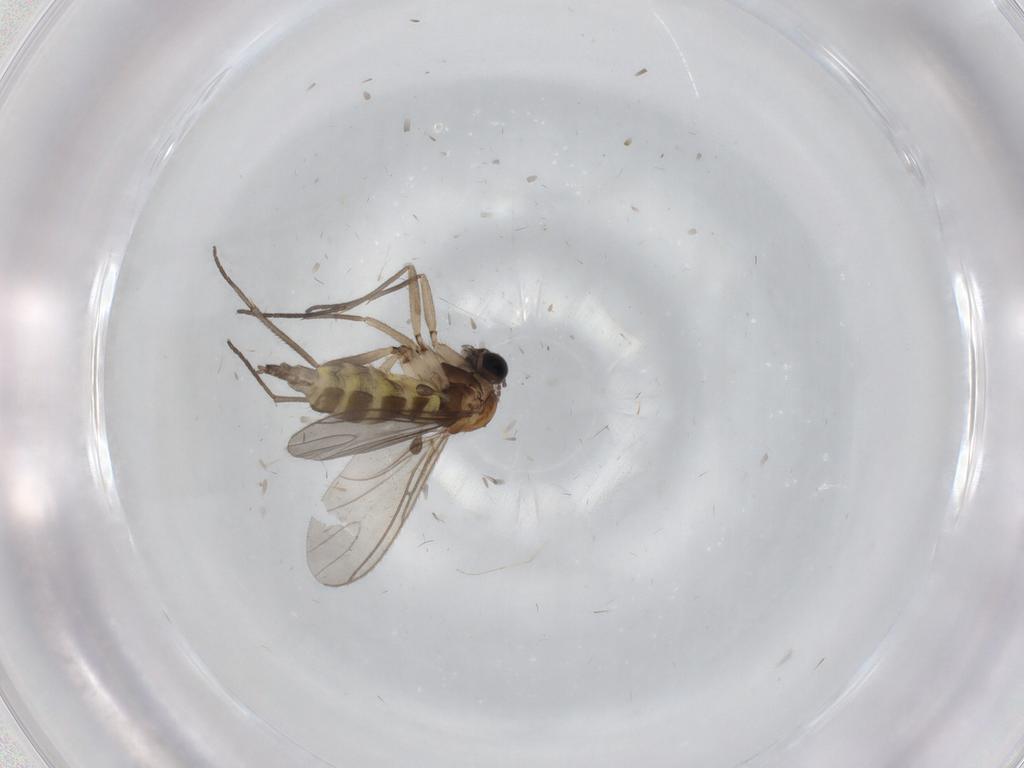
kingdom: Animalia
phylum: Arthropoda
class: Insecta
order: Diptera
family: Sciaridae
